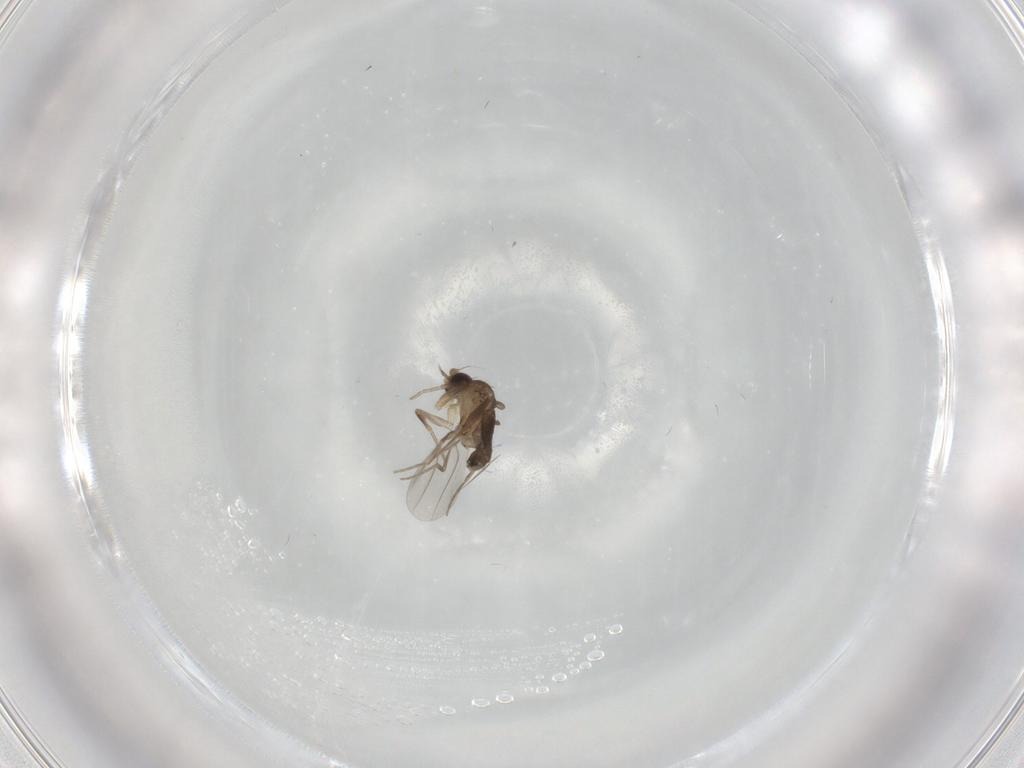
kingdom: Animalia
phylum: Arthropoda
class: Insecta
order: Diptera
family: Phoridae
